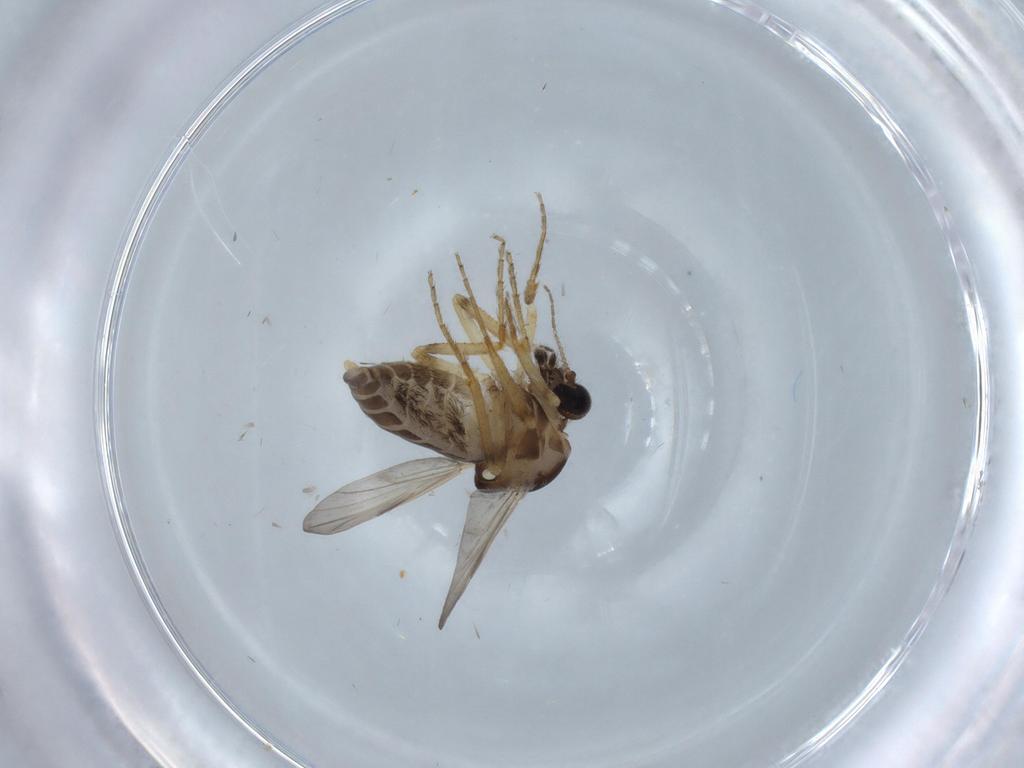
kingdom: Animalia
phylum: Arthropoda
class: Insecta
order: Diptera
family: Ceratopogonidae
